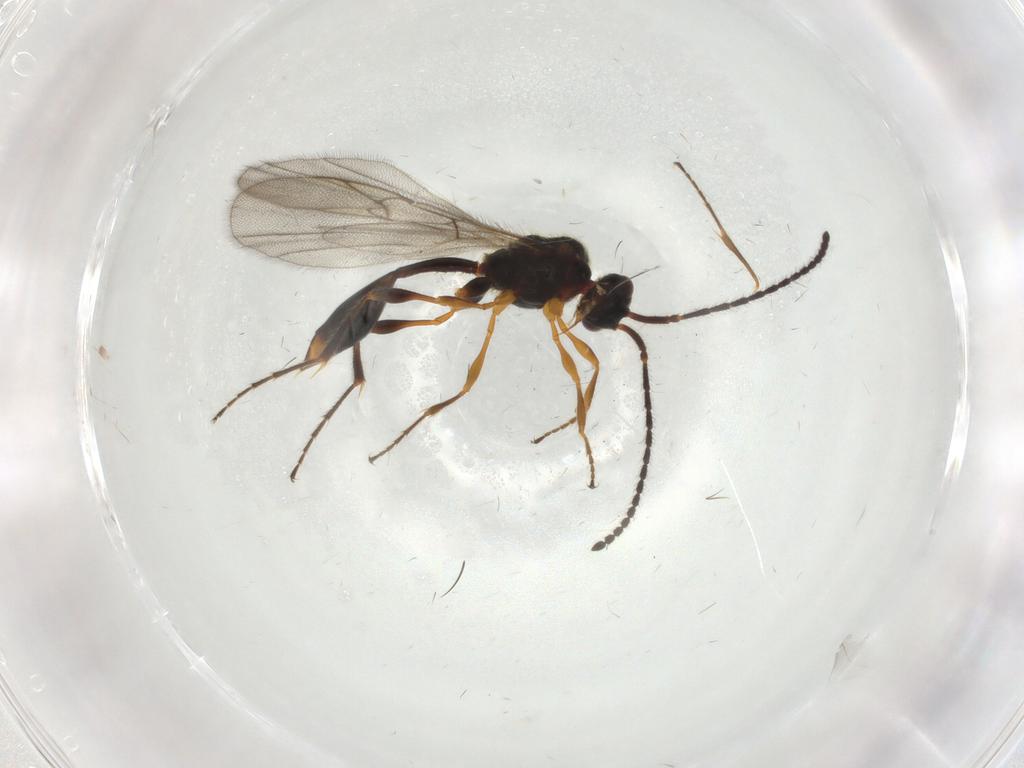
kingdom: Animalia
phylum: Arthropoda
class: Insecta
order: Hymenoptera
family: Diapriidae
